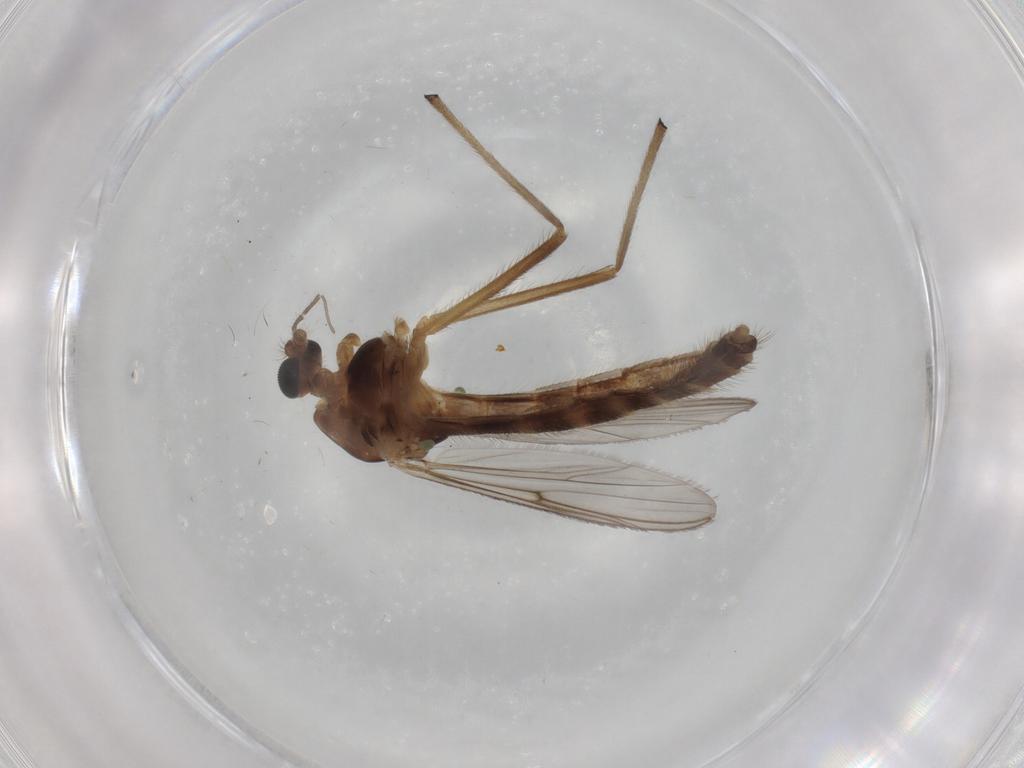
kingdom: Animalia
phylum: Arthropoda
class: Insecta
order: Diptera
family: Chironomidae
